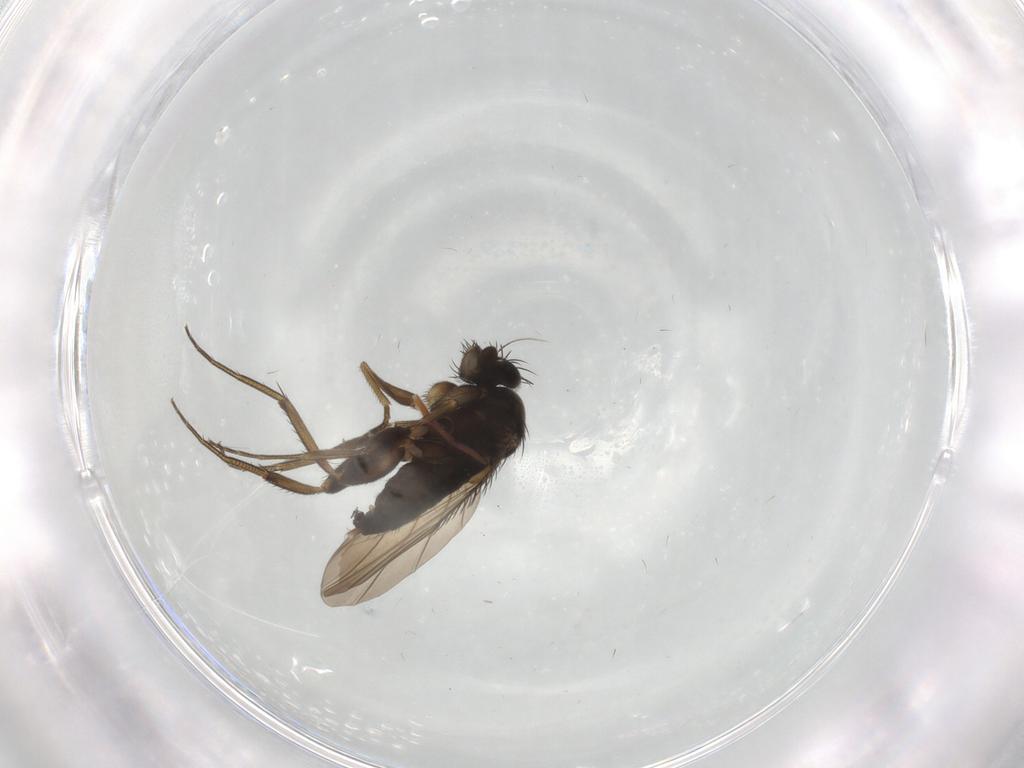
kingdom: Animalia
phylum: Arthropoda
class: Insecta
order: Diptera
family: Phoridae
